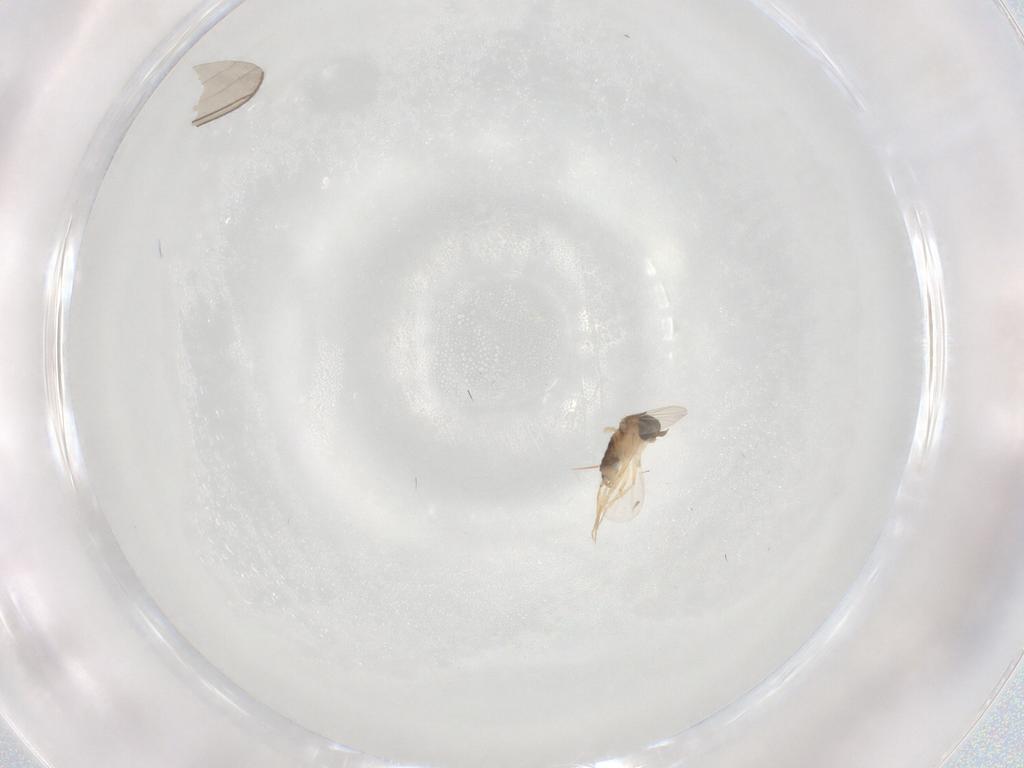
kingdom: Animalia
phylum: Arthropoda
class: Insecta
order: Diptera
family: Phoridae
